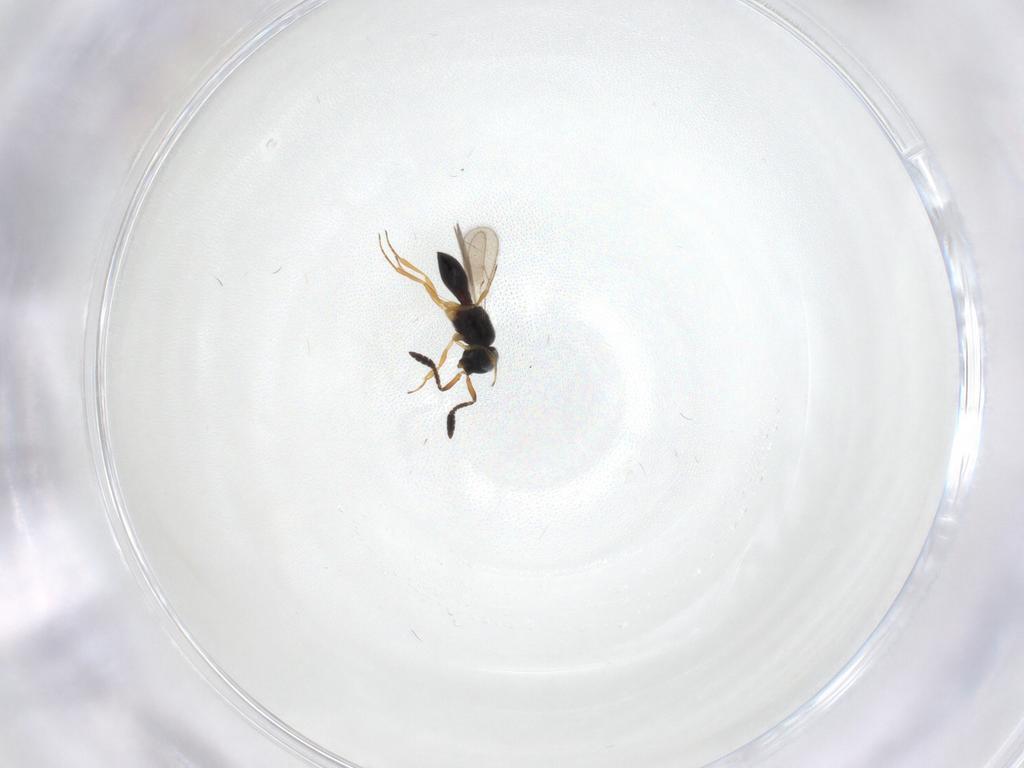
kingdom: Animalia
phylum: Arthropoda
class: Insecta
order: Hymenoptera
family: Scelionidae
